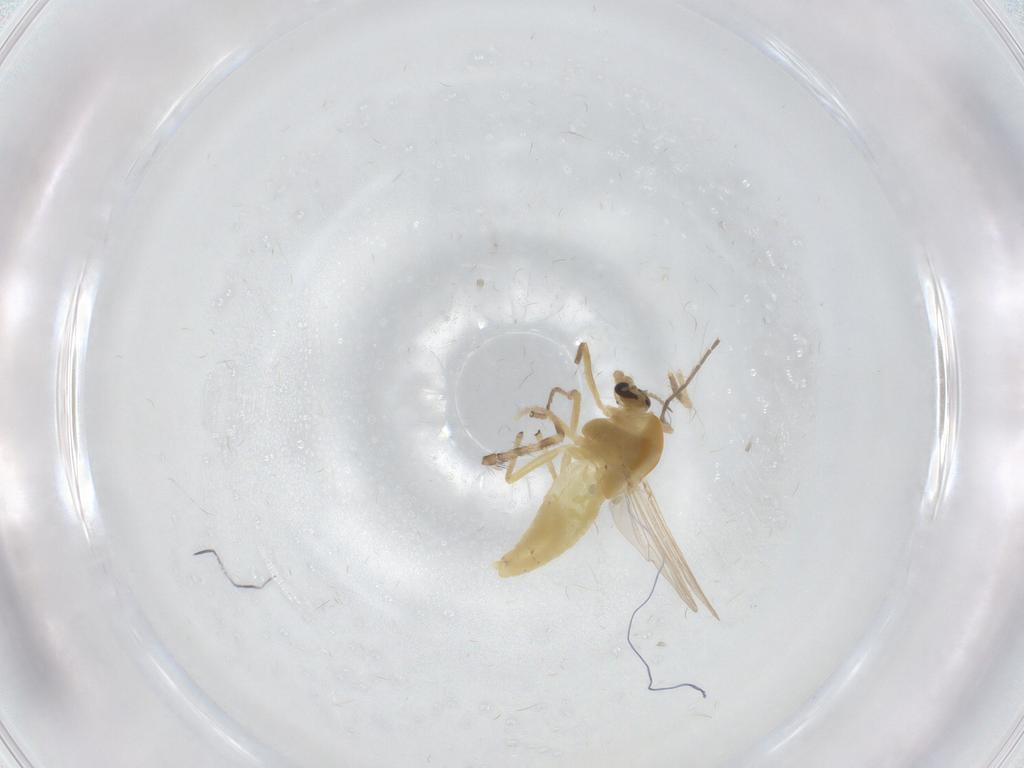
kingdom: Animalia
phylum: Arthropoda
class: Insecta
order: Diptera
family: Chironomidae
